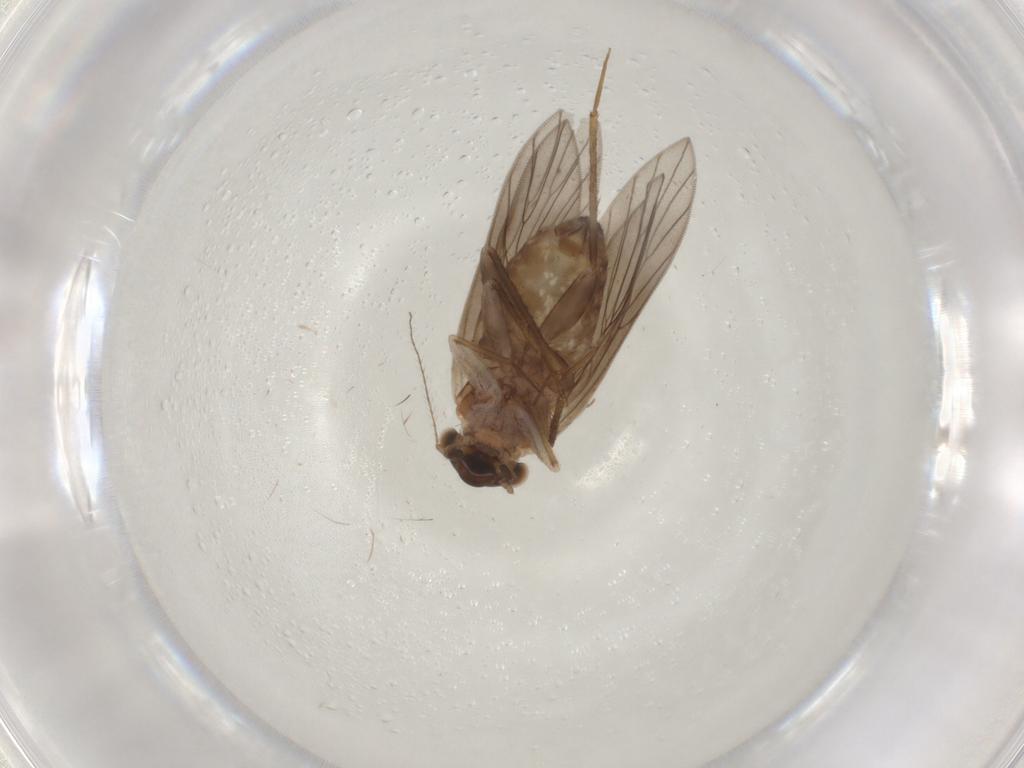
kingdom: Animalia
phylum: Arthropoda
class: Insecta
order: Psocodea
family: Lepidopsocidae
